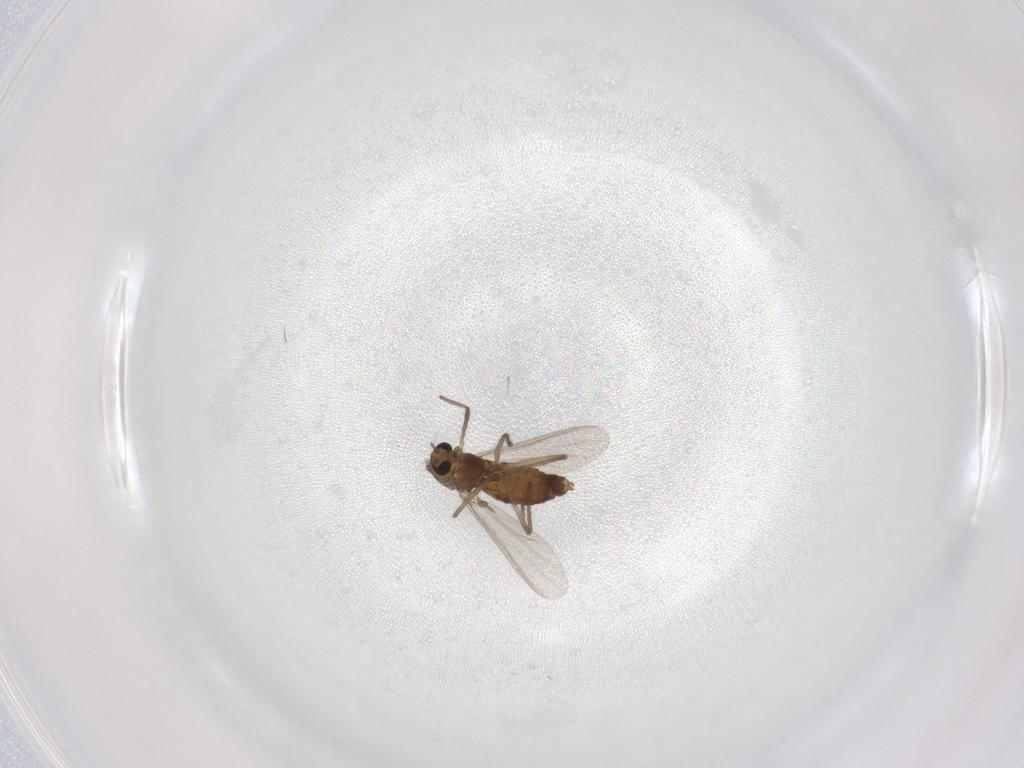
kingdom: Animalia
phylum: Arthropoda
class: Insecta
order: Diptera
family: Chironomidae
